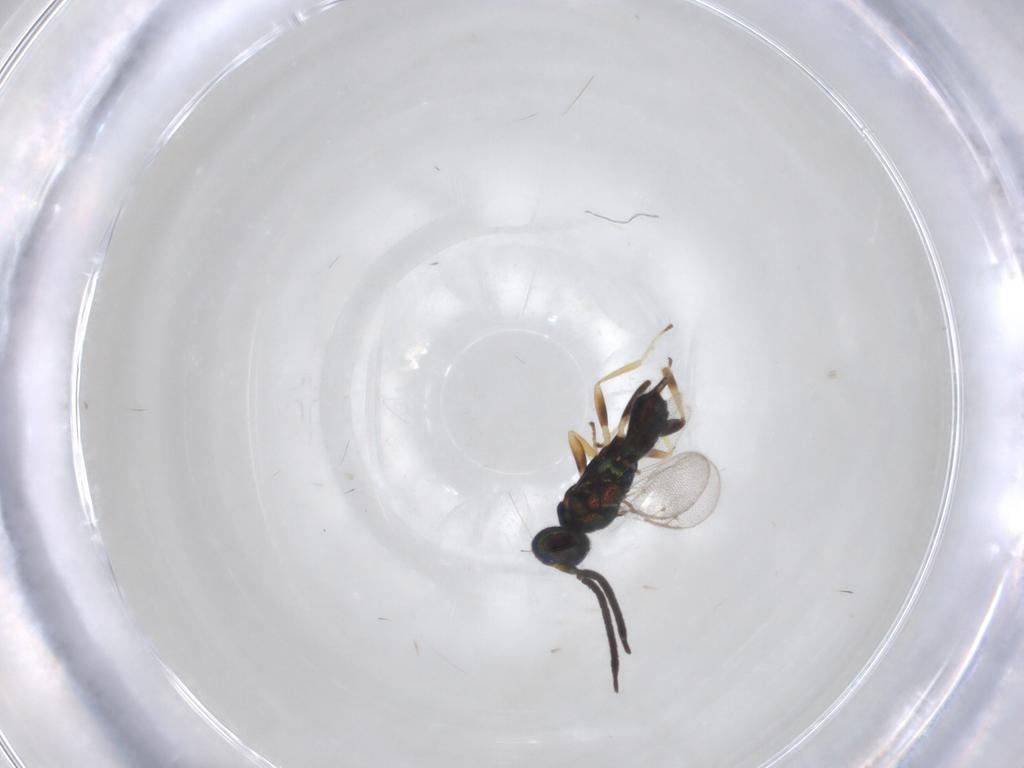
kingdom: Animalia
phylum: Arthropoda
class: Insecta
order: Hymenoptera
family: Eupelmidae
